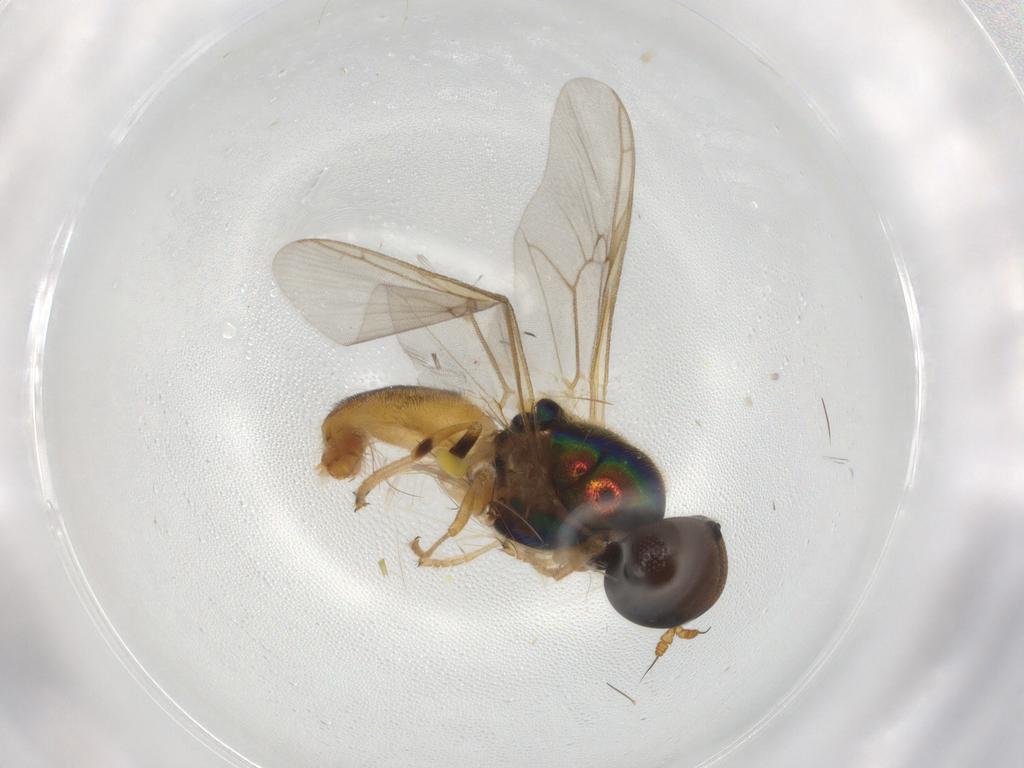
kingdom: Animalia
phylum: Arthropoda
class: Insecta
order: Diptera
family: Stratiomyidae
